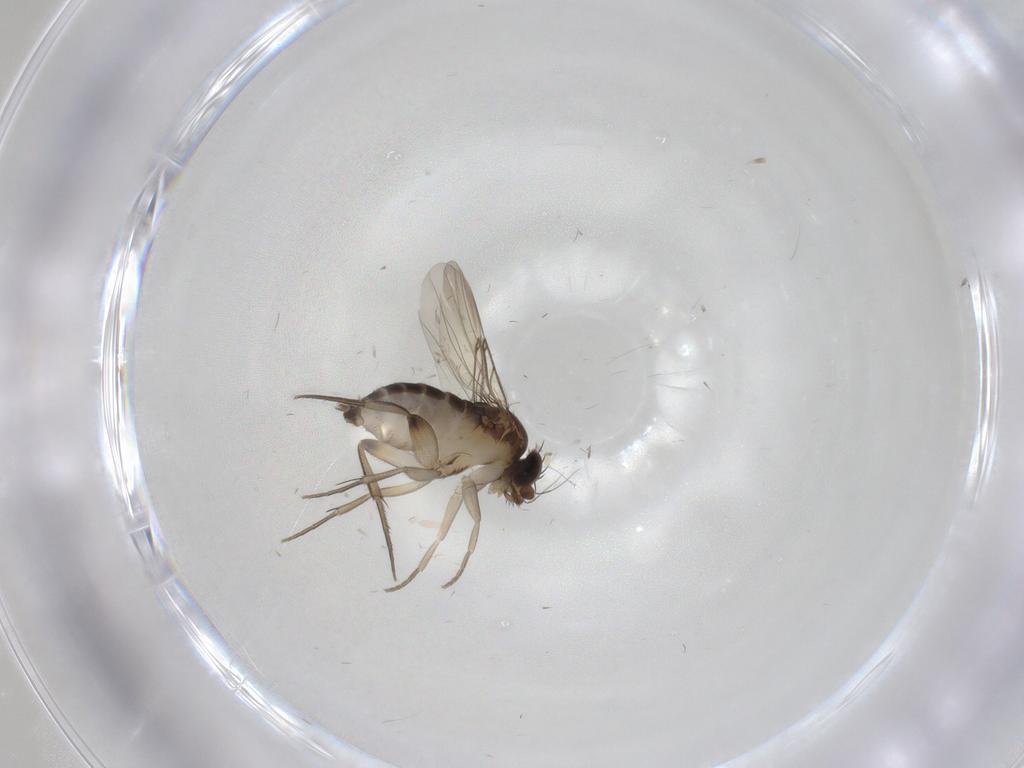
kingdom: Animalia
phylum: Arthropoda
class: Insecta
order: Diptera
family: Phoridae
